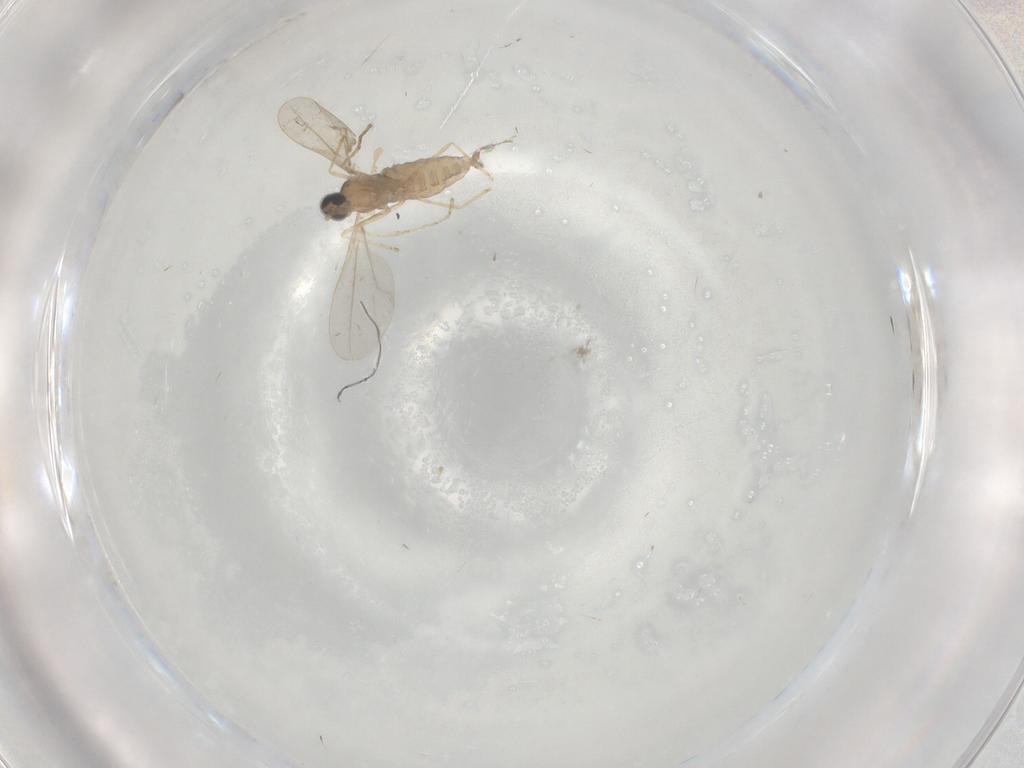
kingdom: Animalia
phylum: Arthropoda
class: Insecta
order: Diptera
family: Cecidomyiidae
